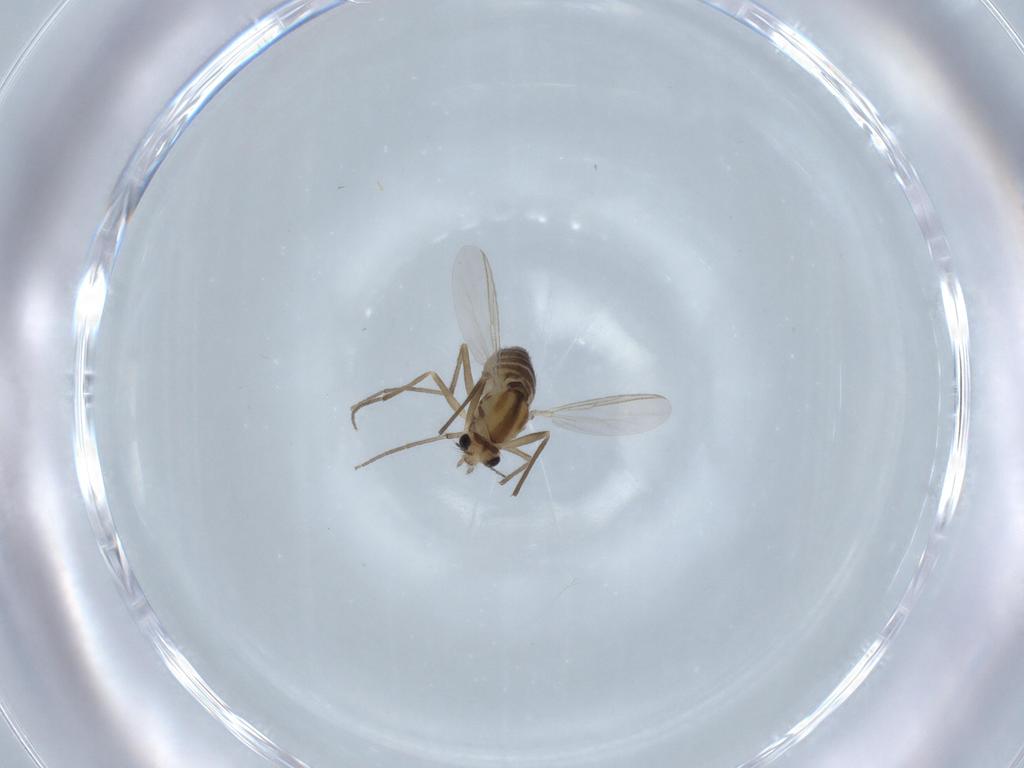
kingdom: Animalia
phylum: Arthropoda
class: Insecta
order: Diptera
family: Chironomidae
